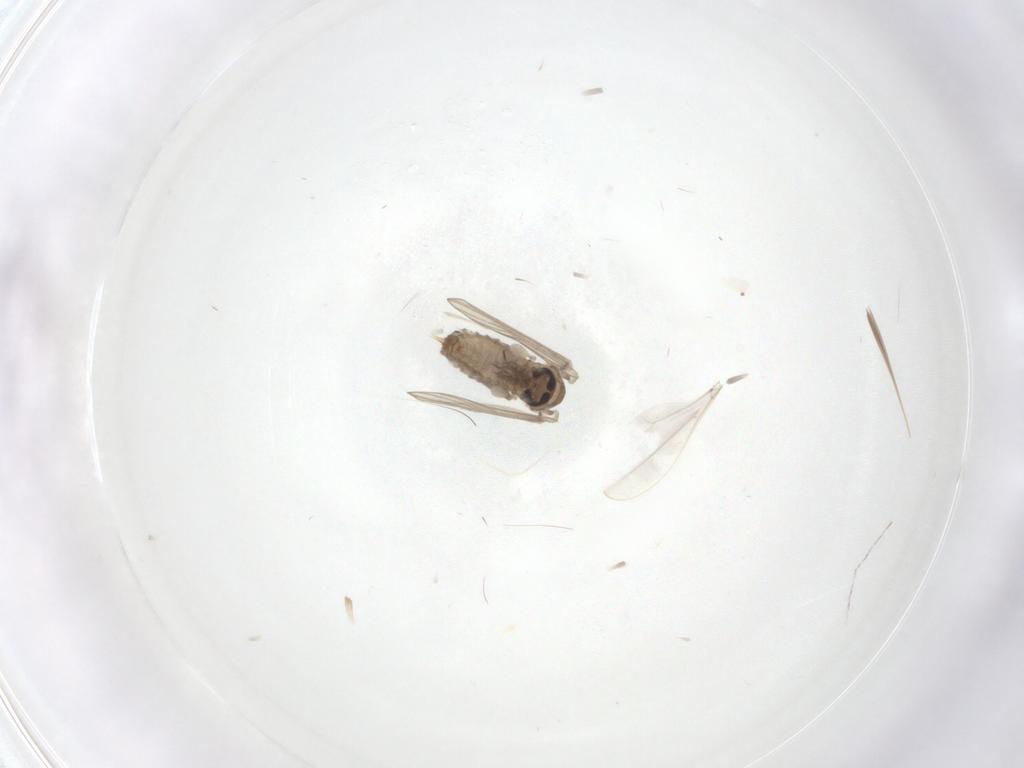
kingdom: Animalia
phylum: Arthropoda
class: Insecta
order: Diptera
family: Psychodidae
